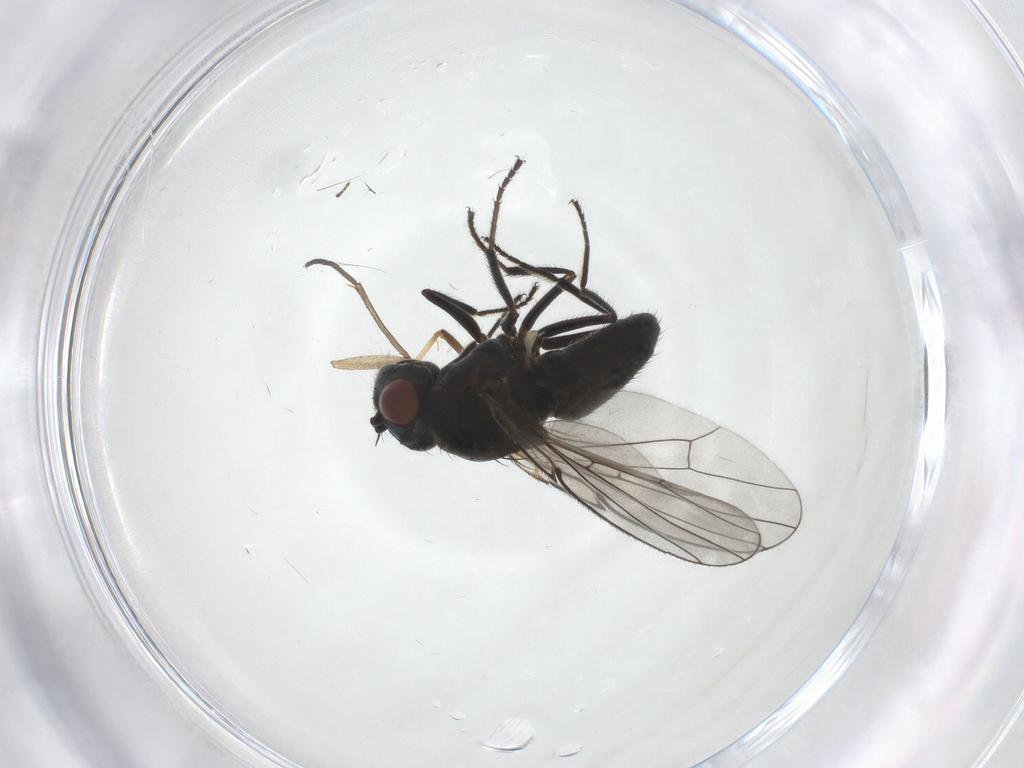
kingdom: Animalia
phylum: Arthropoda
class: Insecta
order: Diptera
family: Ephydridae
